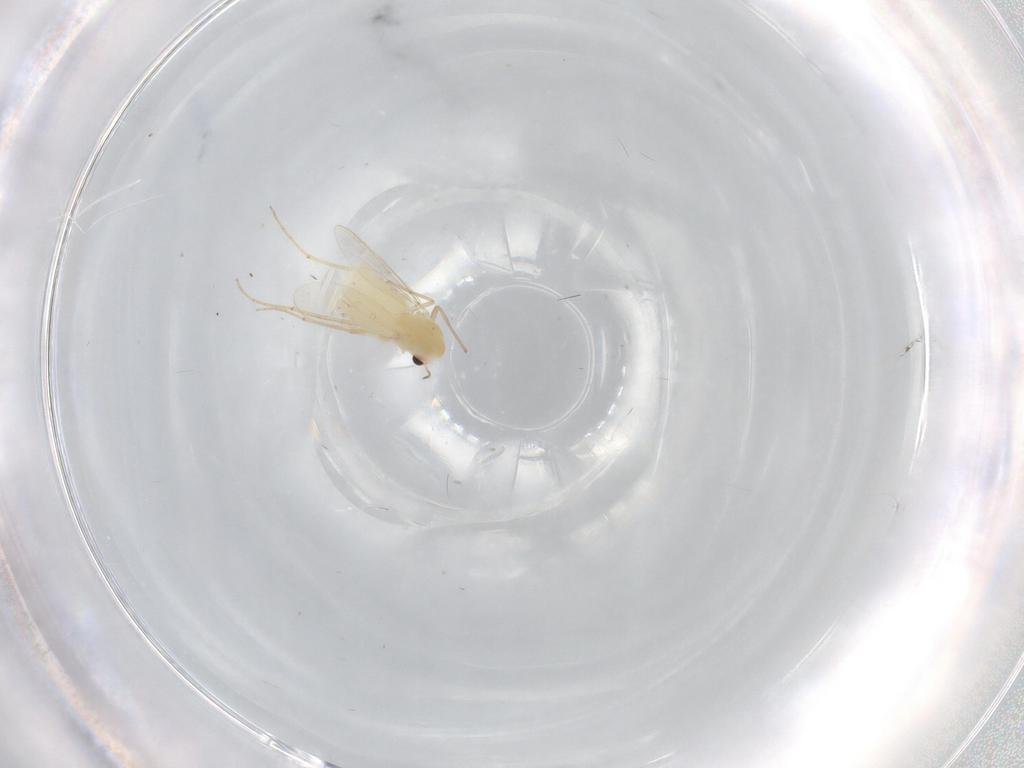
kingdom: Animalia
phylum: Arthropoda
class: Insecta
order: Diptera
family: Chironomidae
